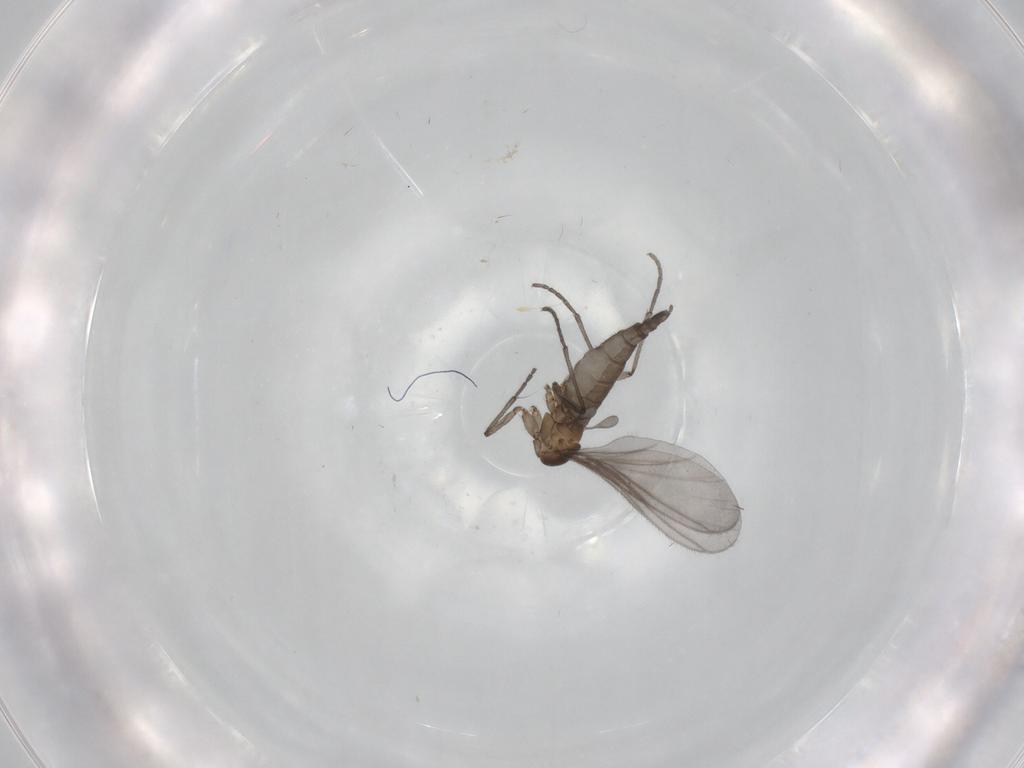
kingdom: Animalia
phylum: Arthropoda
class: Insecta
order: Diptera
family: Sciaridae
